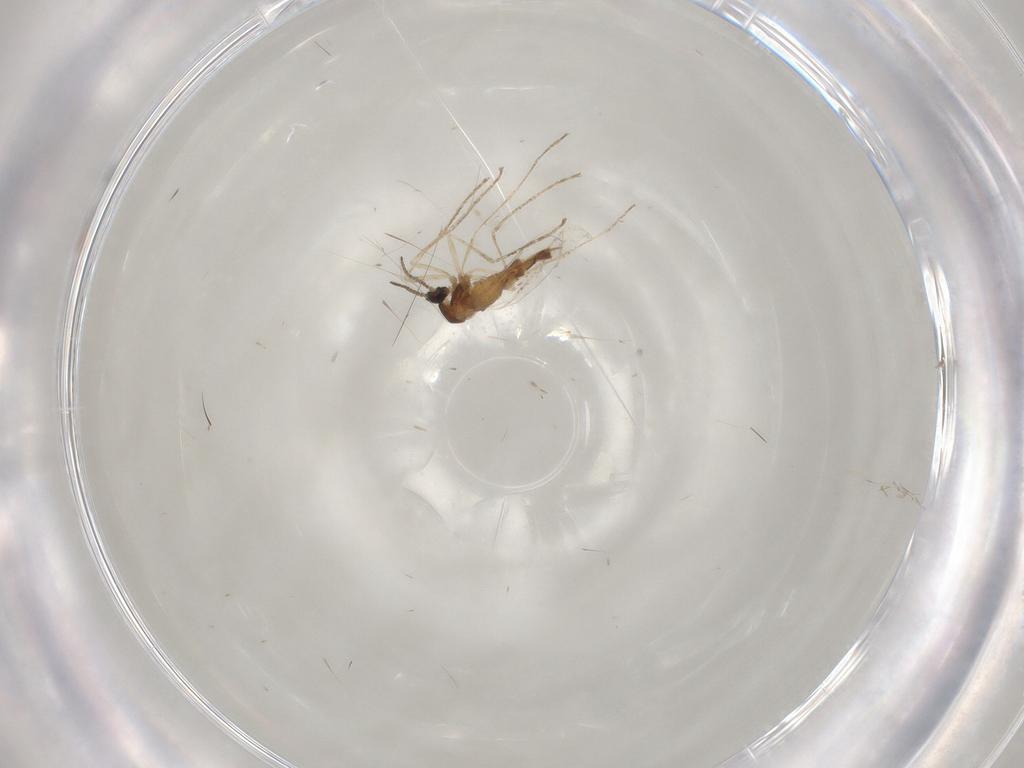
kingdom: Animalia
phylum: Arthropoda
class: Insecta
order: Diptera
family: Cecidomyiidae
